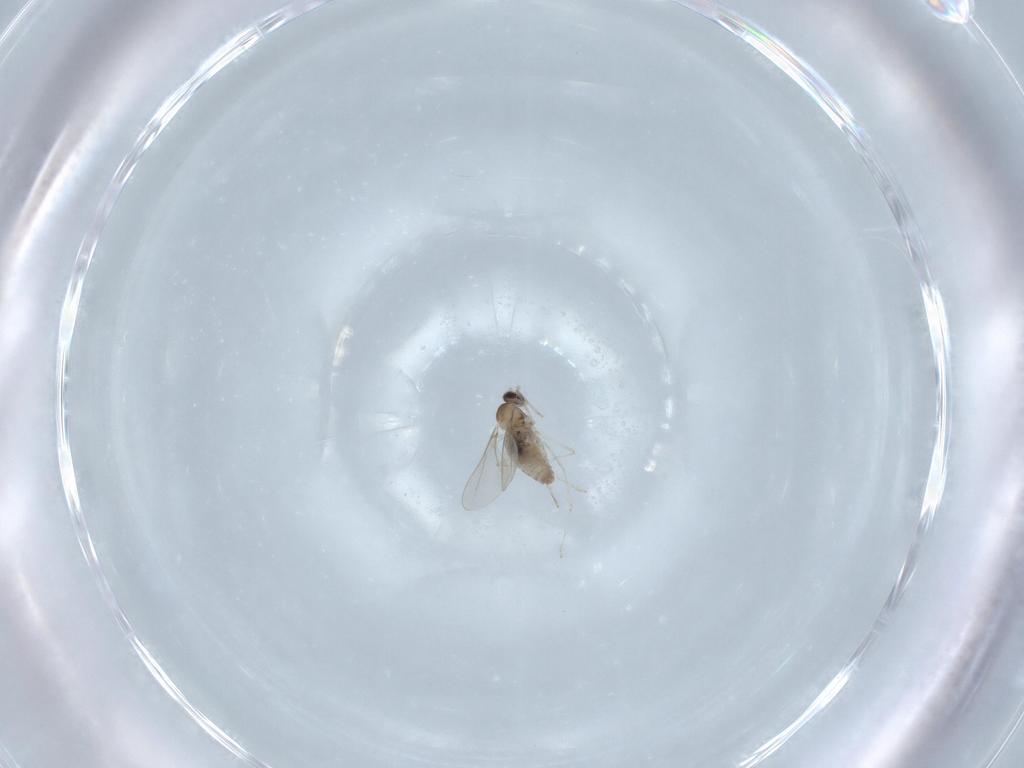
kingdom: Animalia
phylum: Arthropoda
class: Insecta
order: Diptera
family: Cecidomyiidae
